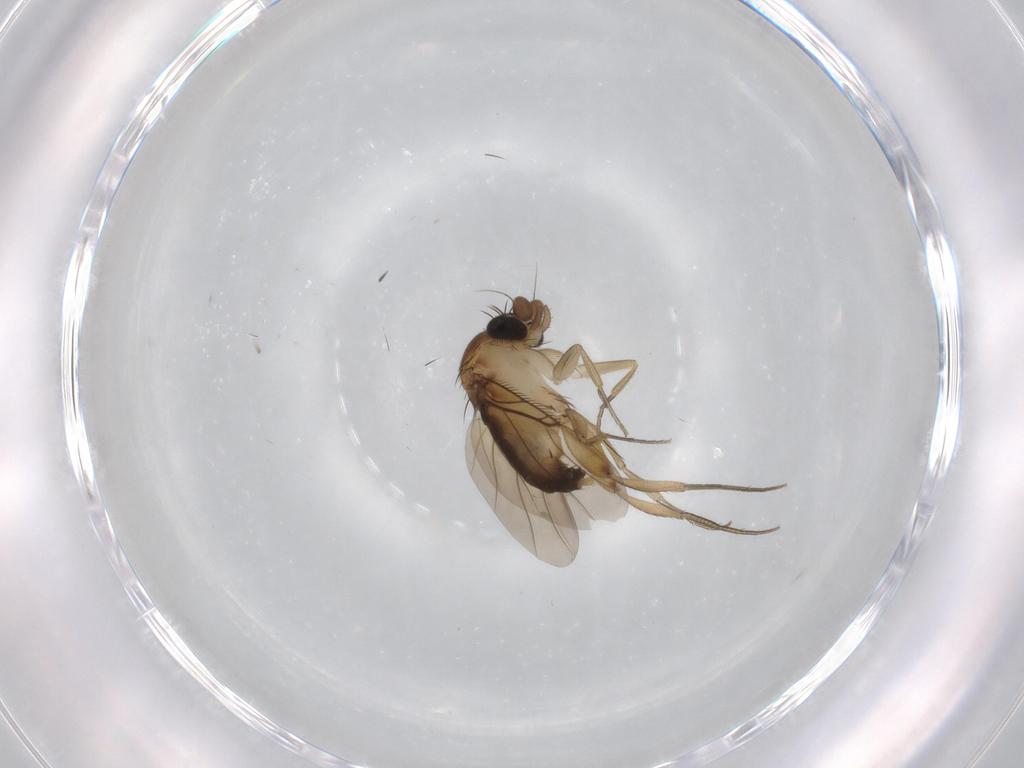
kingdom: Animalia
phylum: Arthropoda
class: Insecta
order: Diptera
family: Phoridae
